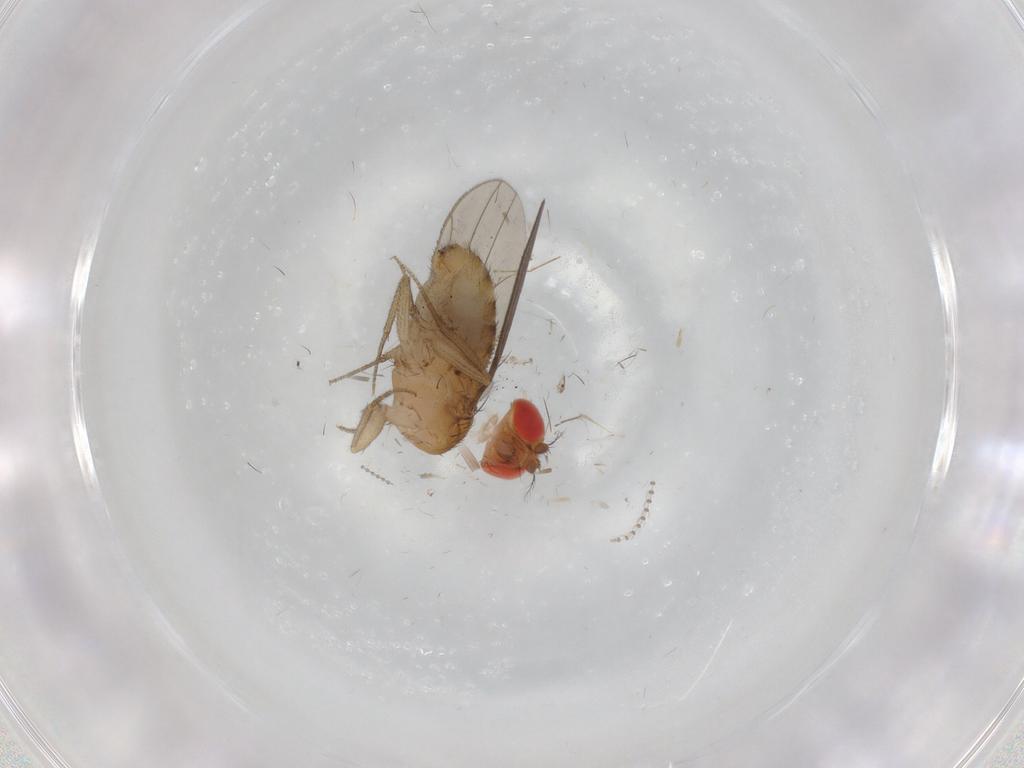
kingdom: Animalia
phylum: Arthropoda
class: Insecta
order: Diptera
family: Drosophilidae
